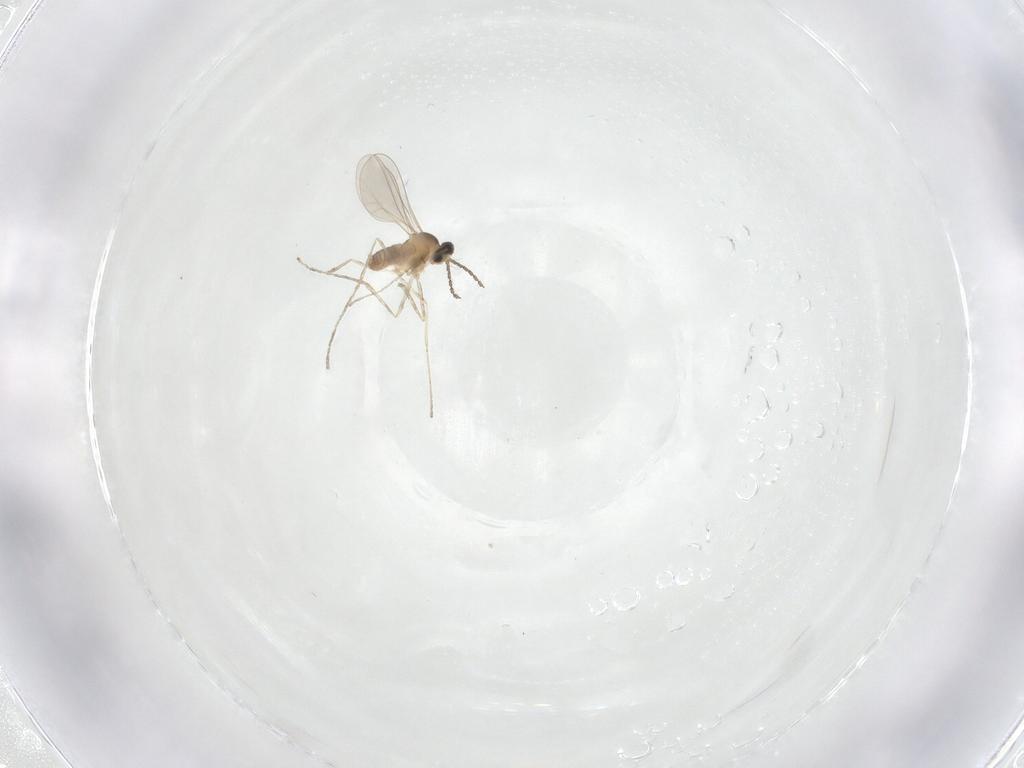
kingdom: Animalia
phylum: Arthropoda
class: Insecta
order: Diptera
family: Cecidomyiidae
